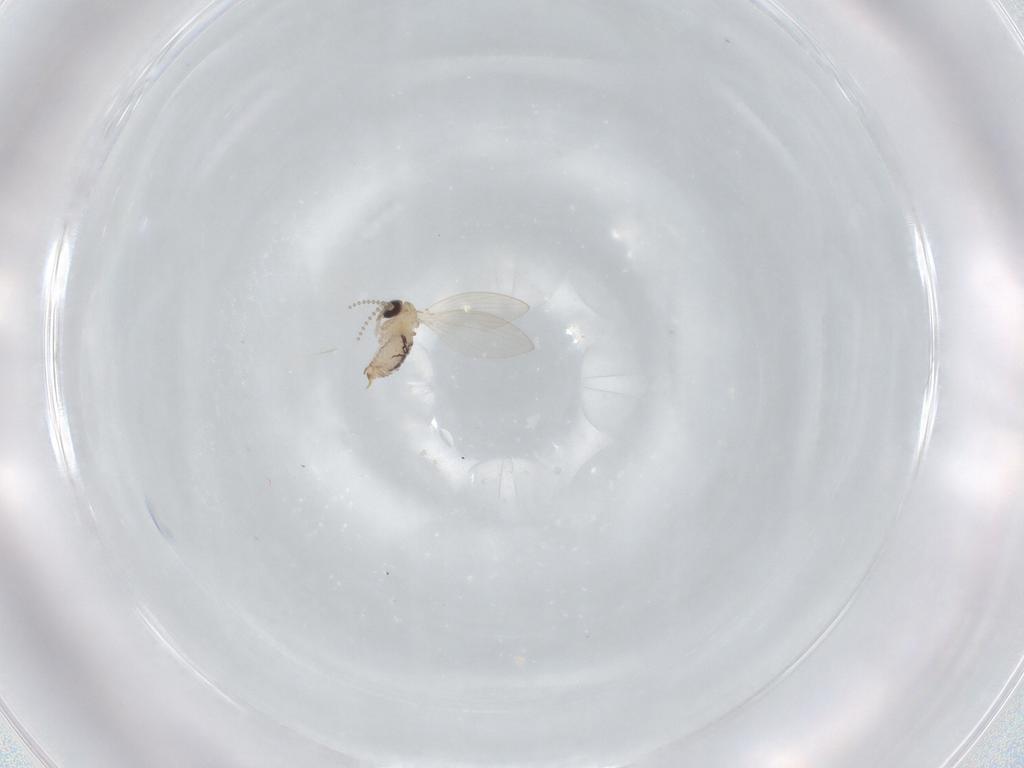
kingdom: Animalia
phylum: Arthropoda
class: Insecta
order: Diptera
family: Psychodidae
